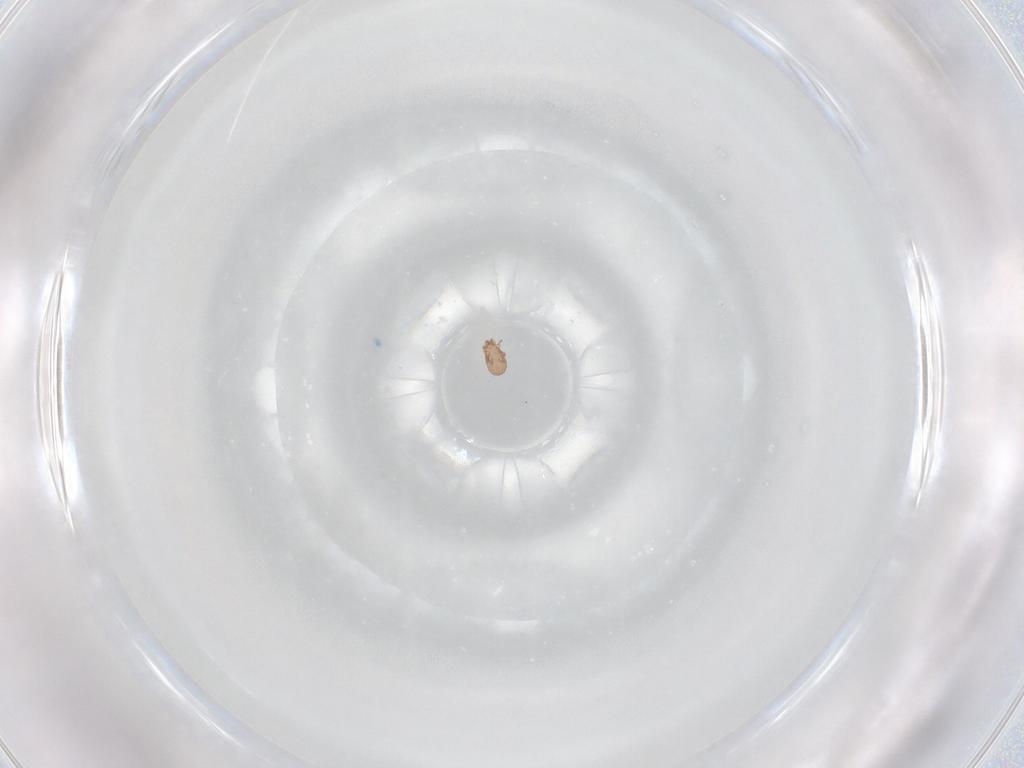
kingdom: Animalia
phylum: Arthropoda
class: Arachnida
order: Sarcoptiformes
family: Eremaeidae
